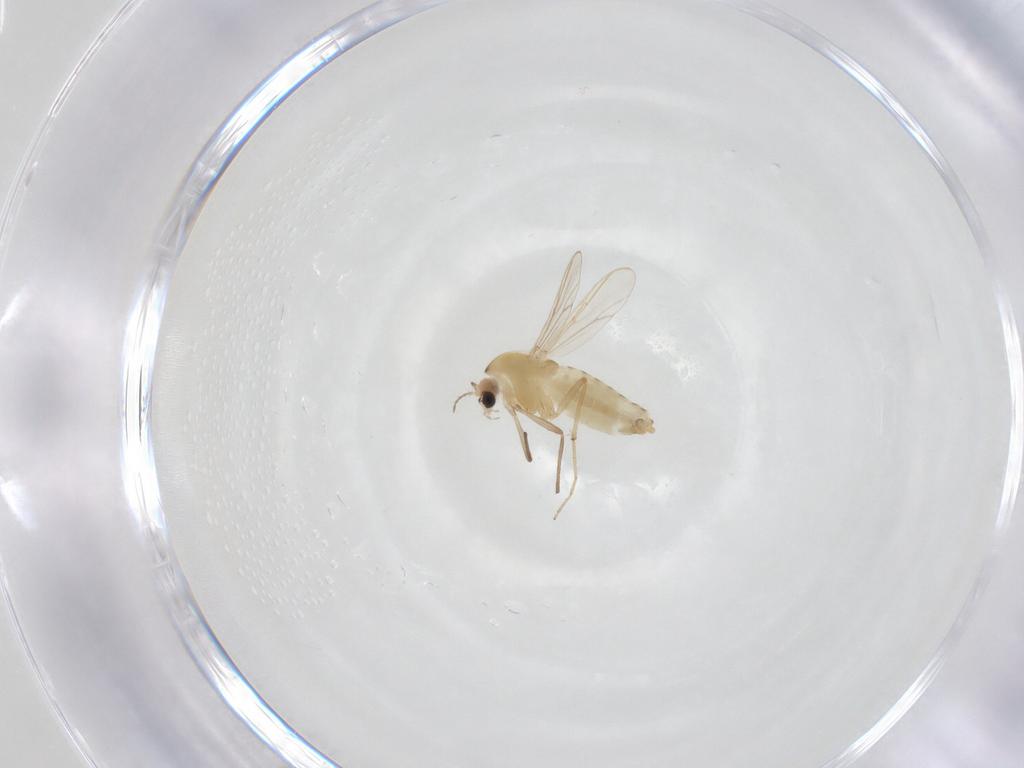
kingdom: Animalia
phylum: Arthropoda
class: Insecta
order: Diptera
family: Chironomidae
